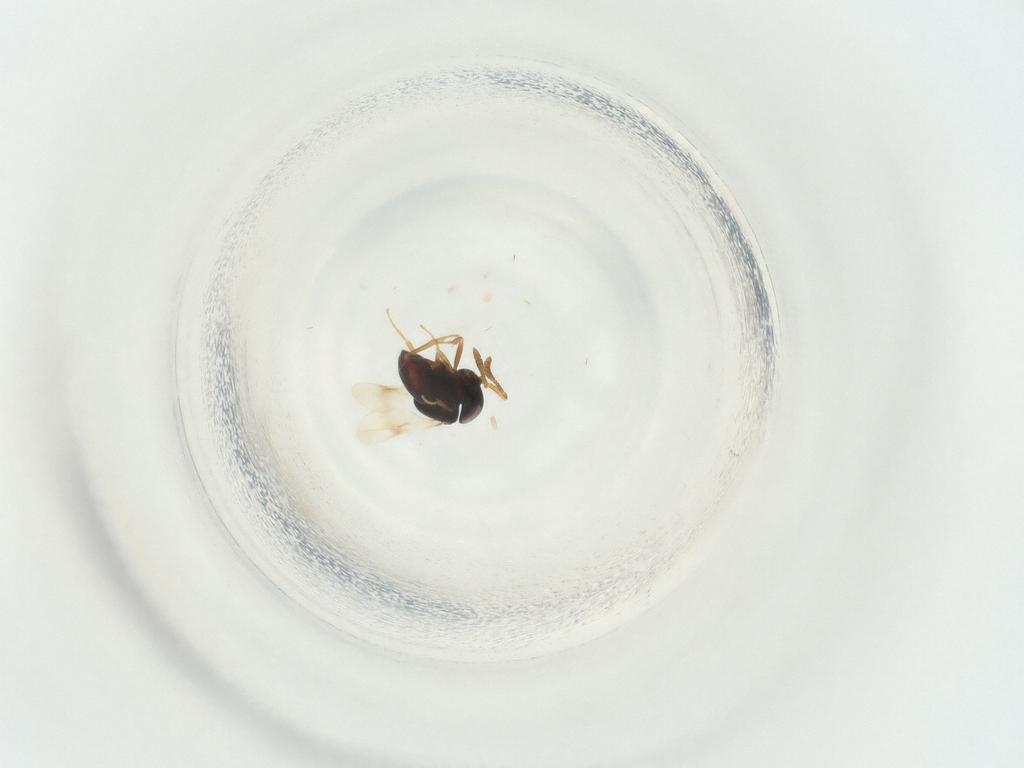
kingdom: Animalia
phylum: Arthropoda
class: Insecta
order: Hymenoptera
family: Scelionidae
